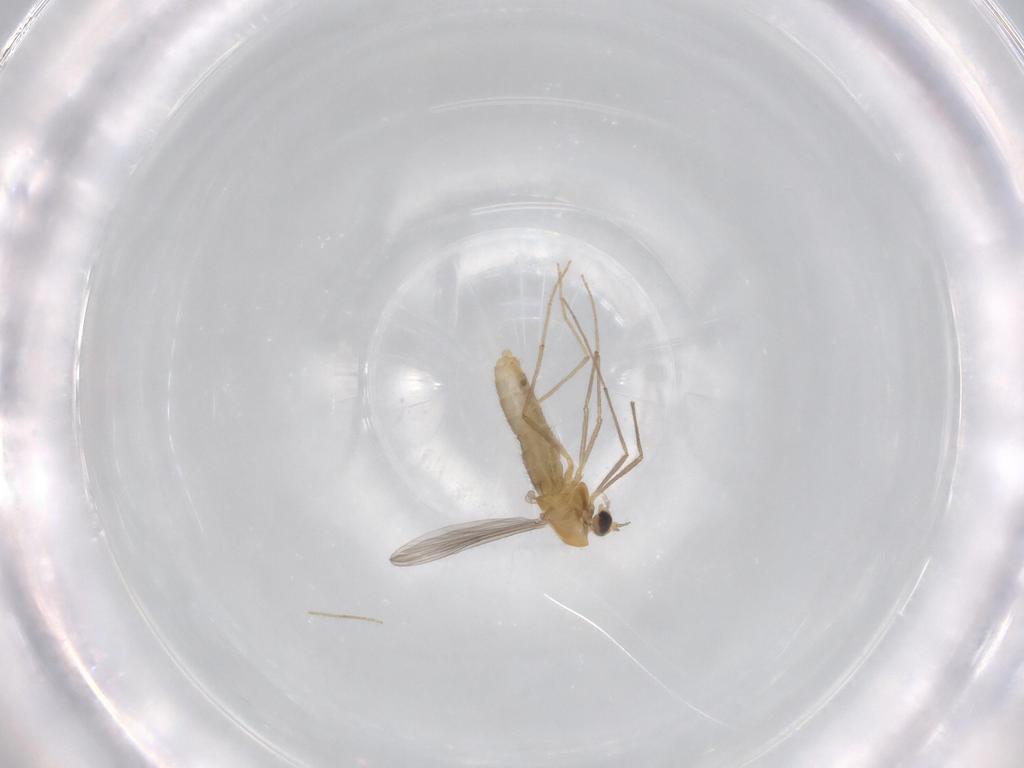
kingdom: Animalia
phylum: Arthropoda
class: Insecta
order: Diptera
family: Chironomidae
